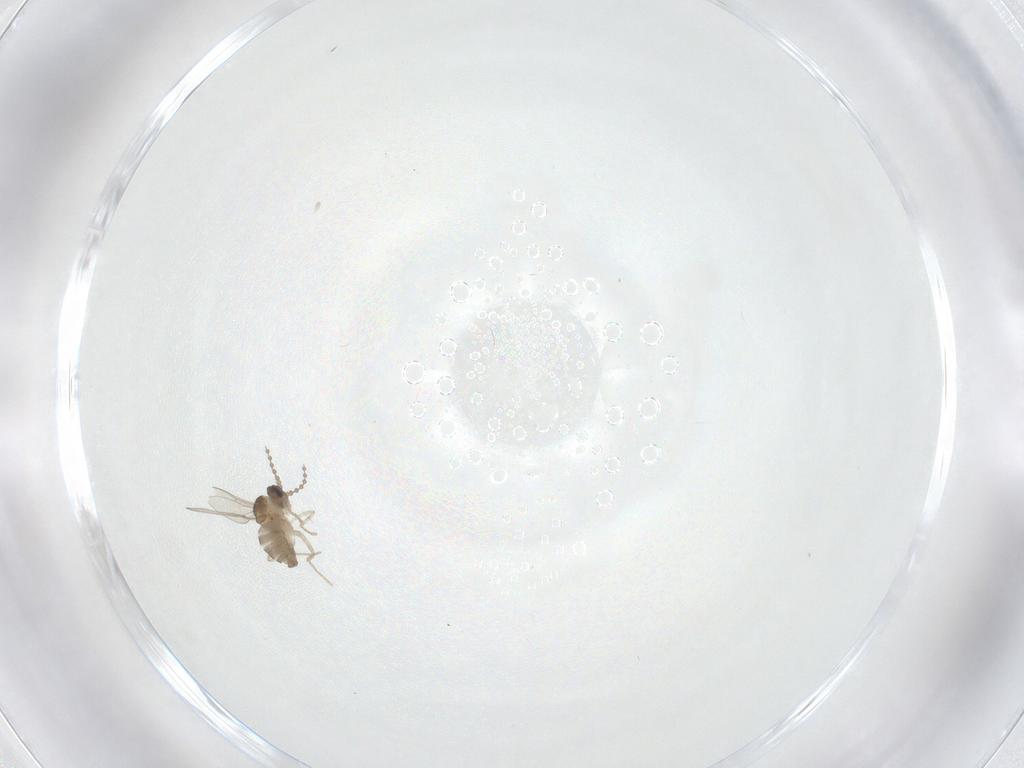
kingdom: Animalia
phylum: Arthropoda
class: Insecta
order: Diptera
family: Cecidomyiidae
